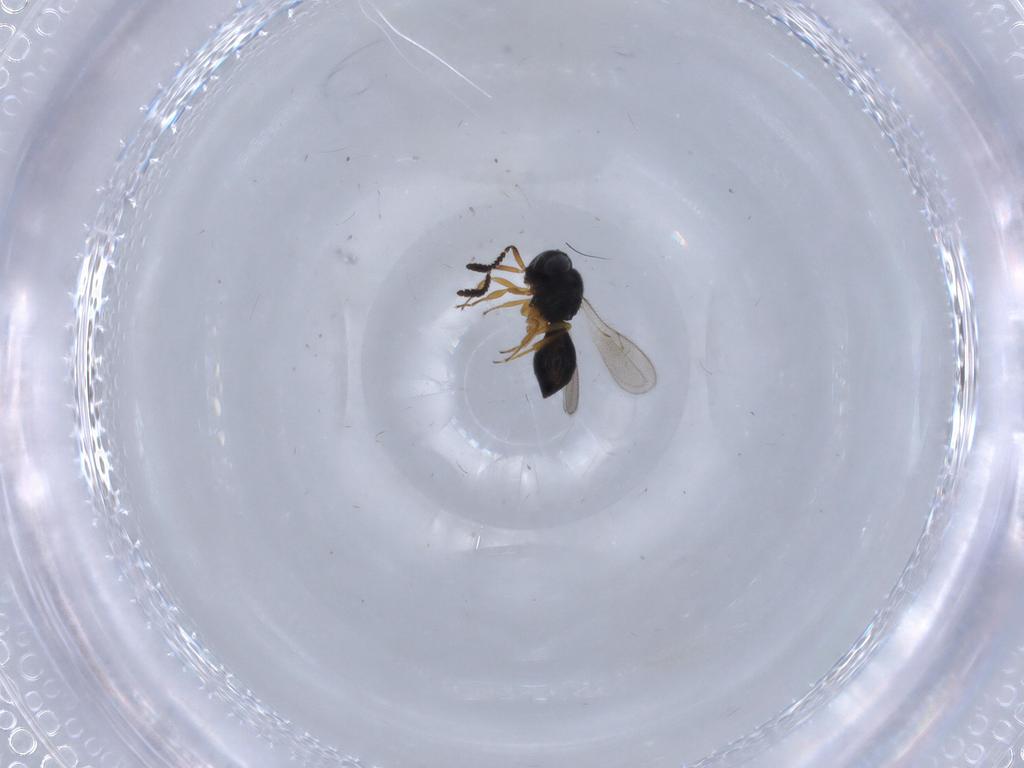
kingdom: Animalia
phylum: Arthropoda
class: Insecta
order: Hymenoptera
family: Scelionidae
